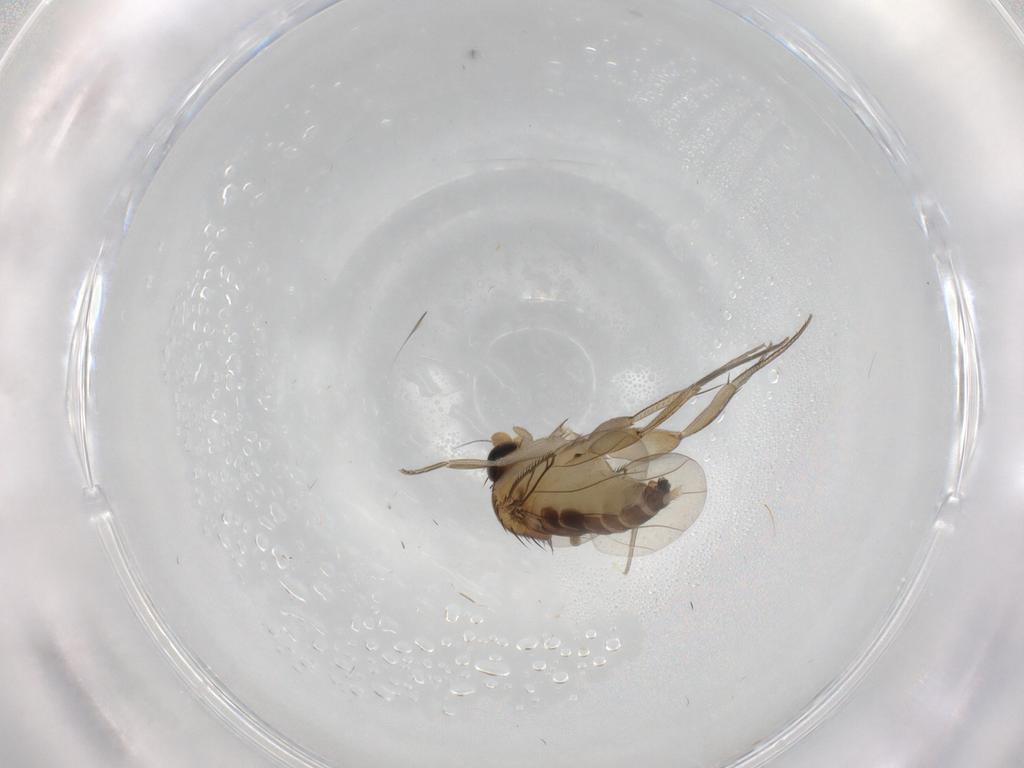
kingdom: Animalia
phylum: Arthropoda
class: Insecta
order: Diptera
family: Phoridae
